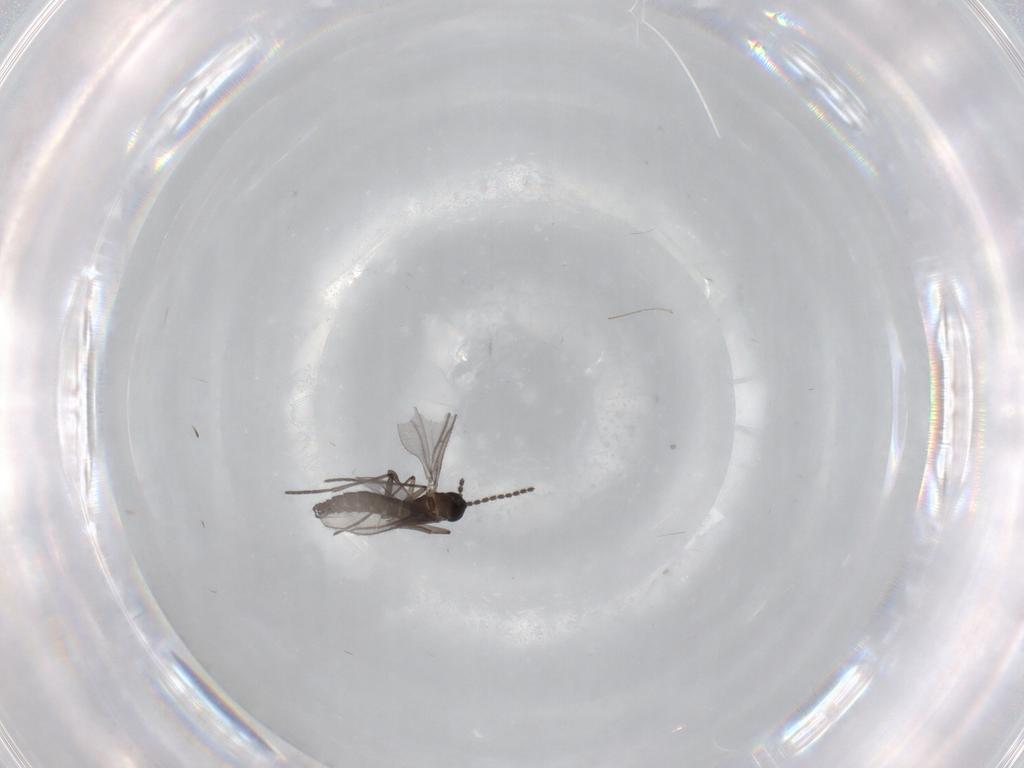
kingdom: Animalia
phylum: Arthropoda
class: Insecta
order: Diptera
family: Cecidomyiidae
